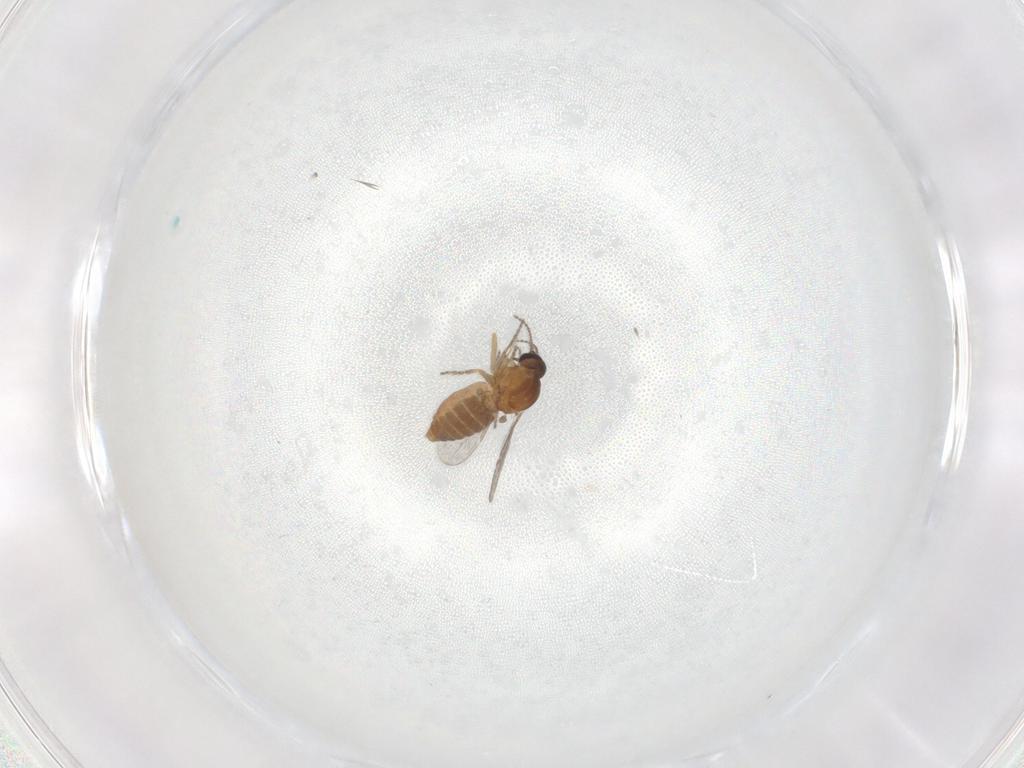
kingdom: Animalia
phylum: Arthropoda
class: Insecta
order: Diptera
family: Ceratopogonidae
